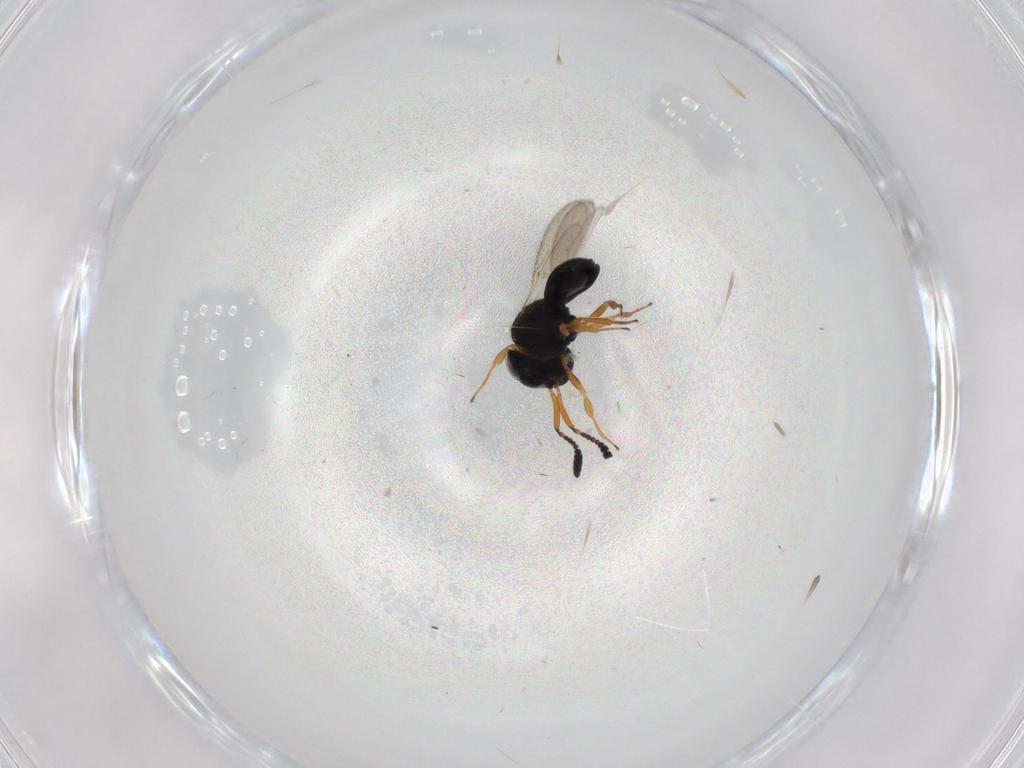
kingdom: Animalia
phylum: Arthropoda
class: Insecta
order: Hymenoptera
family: Scelionidae
